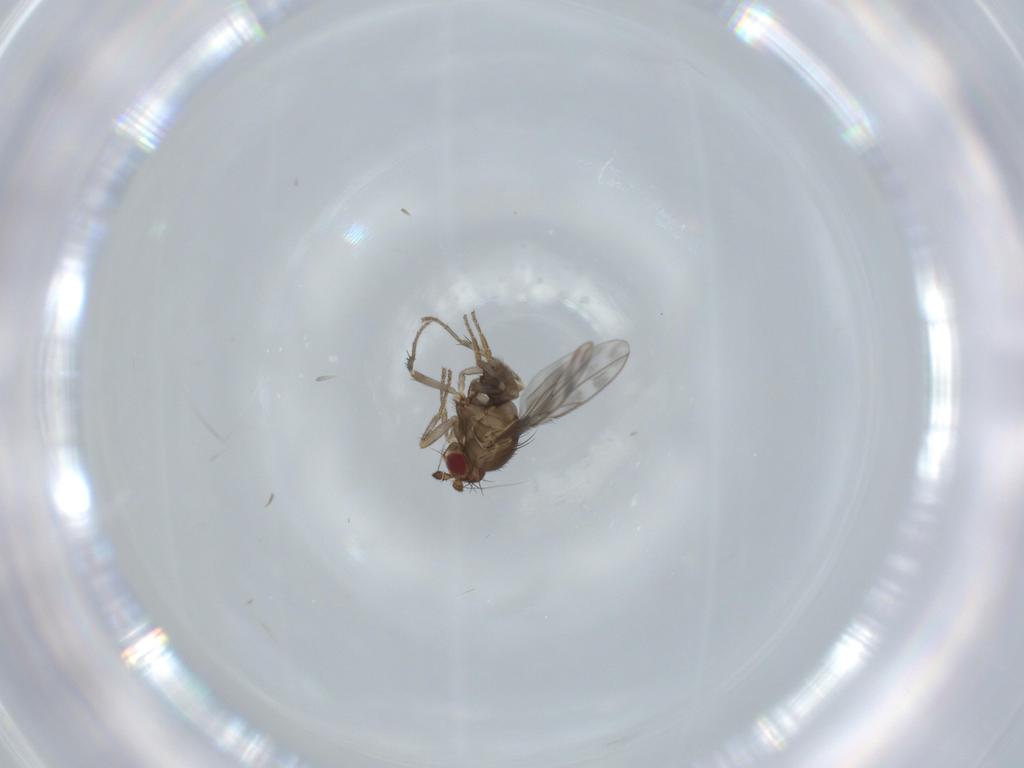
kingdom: Animalia
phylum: Arthropoda
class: Insecta
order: Diptera
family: Sphaeroceridae
